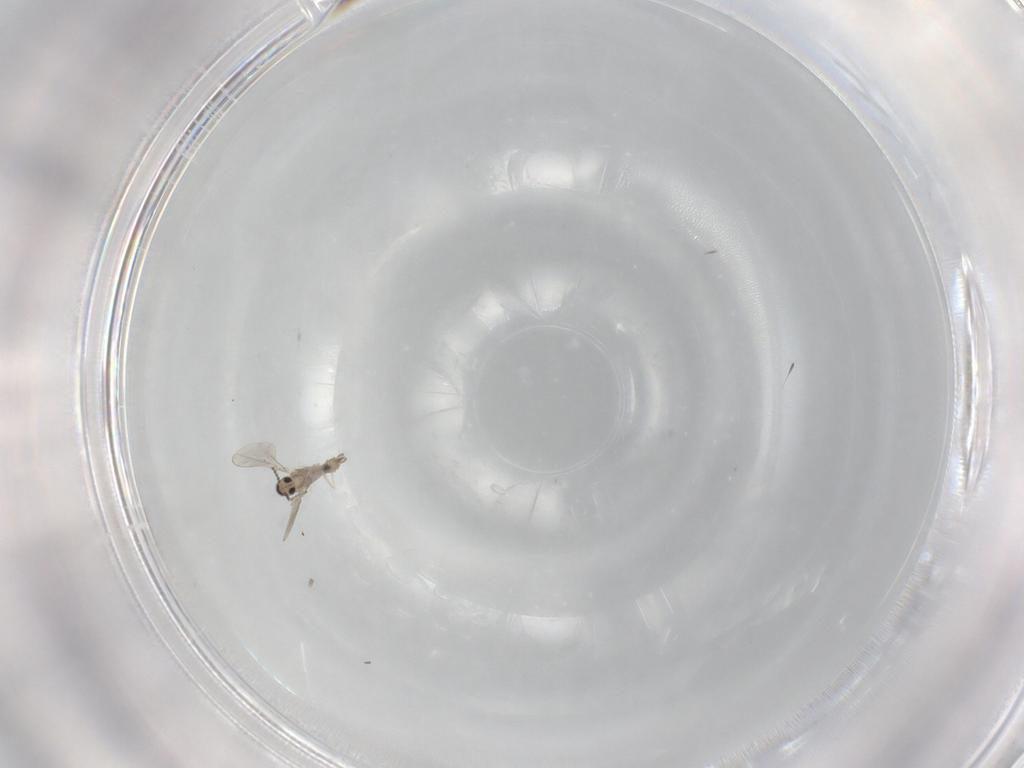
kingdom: Animalia
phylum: Arthropoda
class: Insecta
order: Diptera
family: Cecidomyiidae
